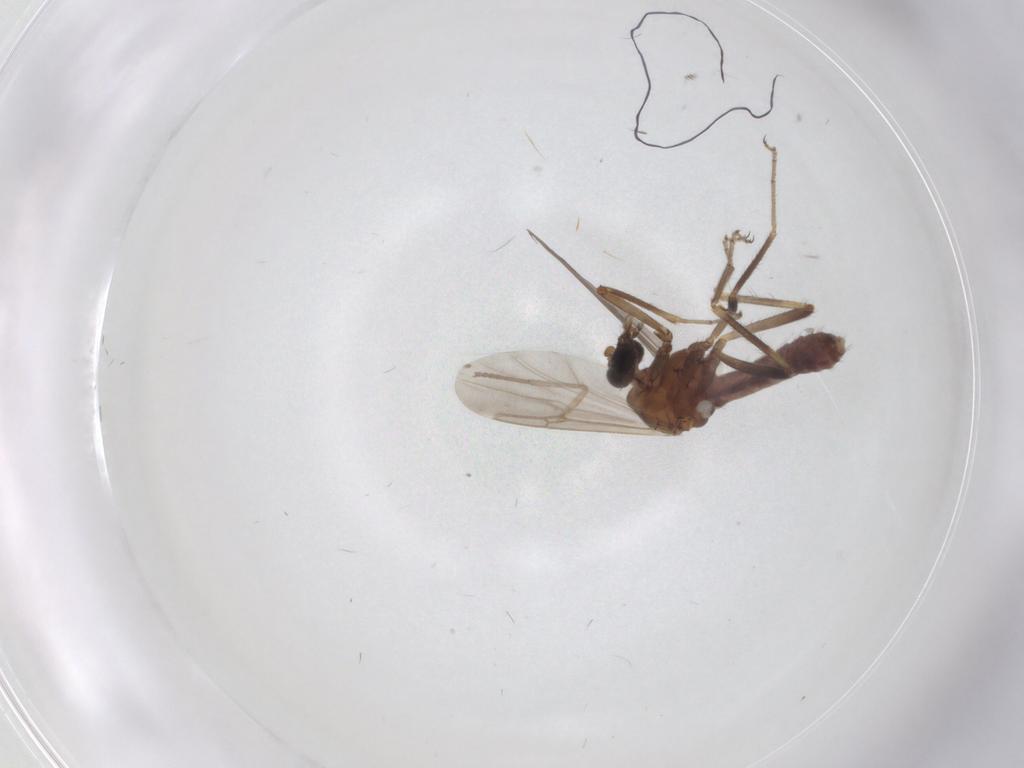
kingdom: Animalia
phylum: Arthropoda
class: Insecta
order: Diptera
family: Ceratopogonidae
